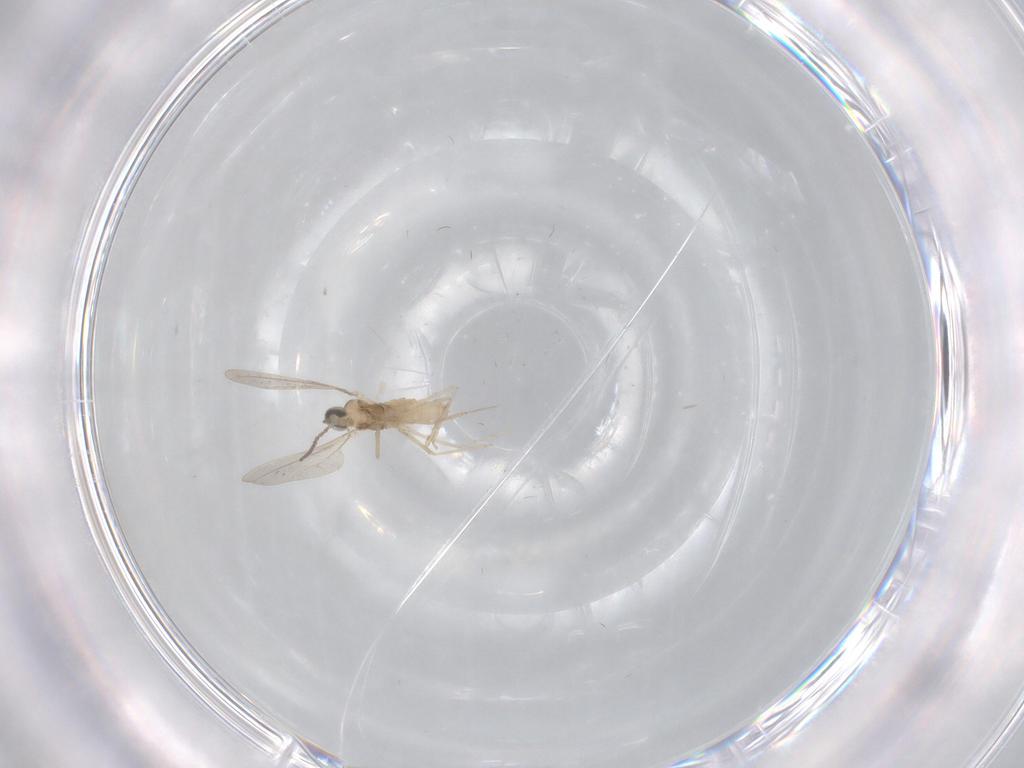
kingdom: Animalia
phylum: Arthropoda
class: Insecta
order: Diptera
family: Cecidomyiidae
